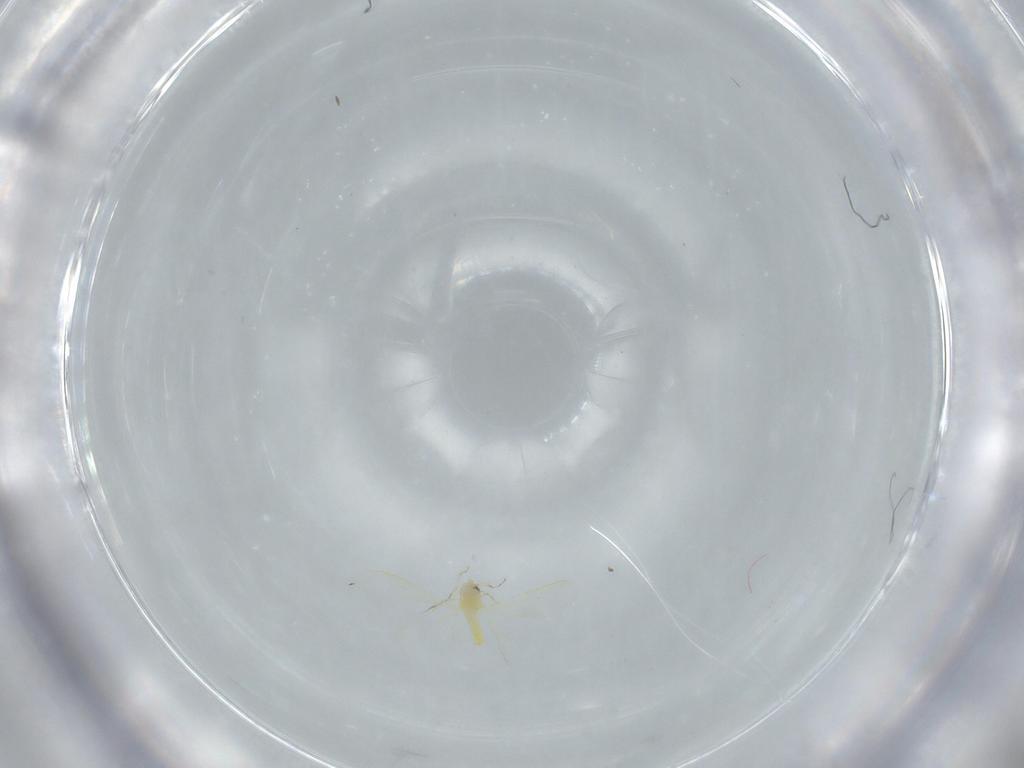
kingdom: Animalia
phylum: Arthropoda
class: Insecta
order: Hemiptera
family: Aleyrodidae
